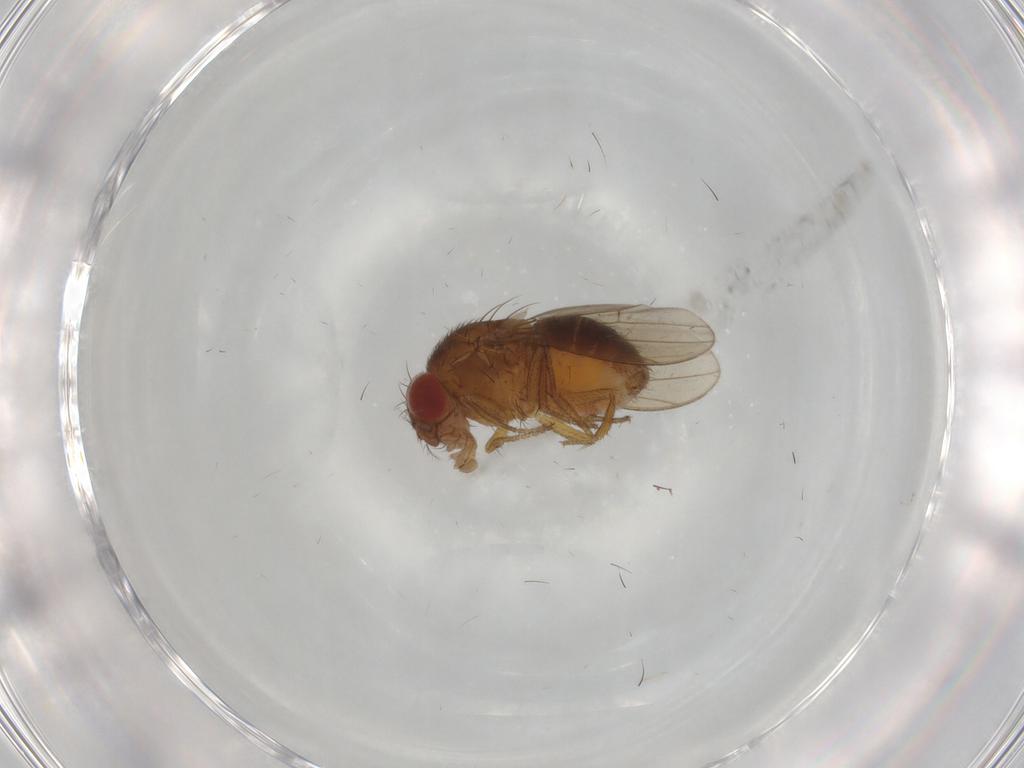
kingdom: Animalia
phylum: Arthropoda
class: Insecta
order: Diptera
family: Drosophilidae
